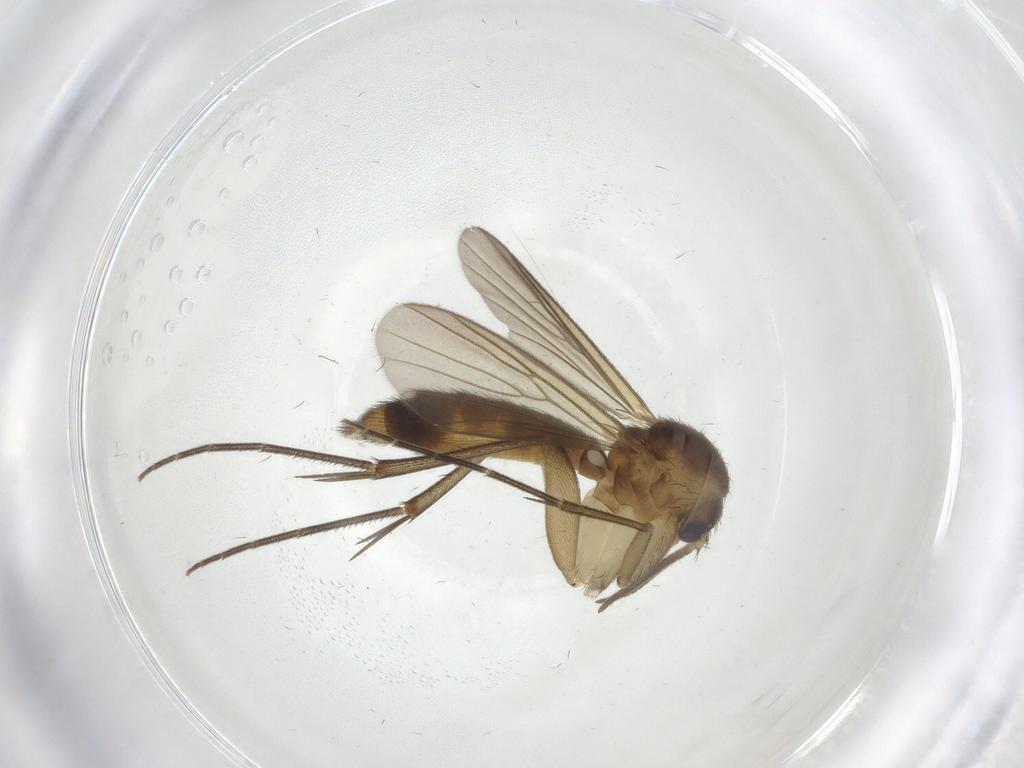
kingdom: Animalia
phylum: Arthropoda
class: Insecta
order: Diptera
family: Limoniidae
